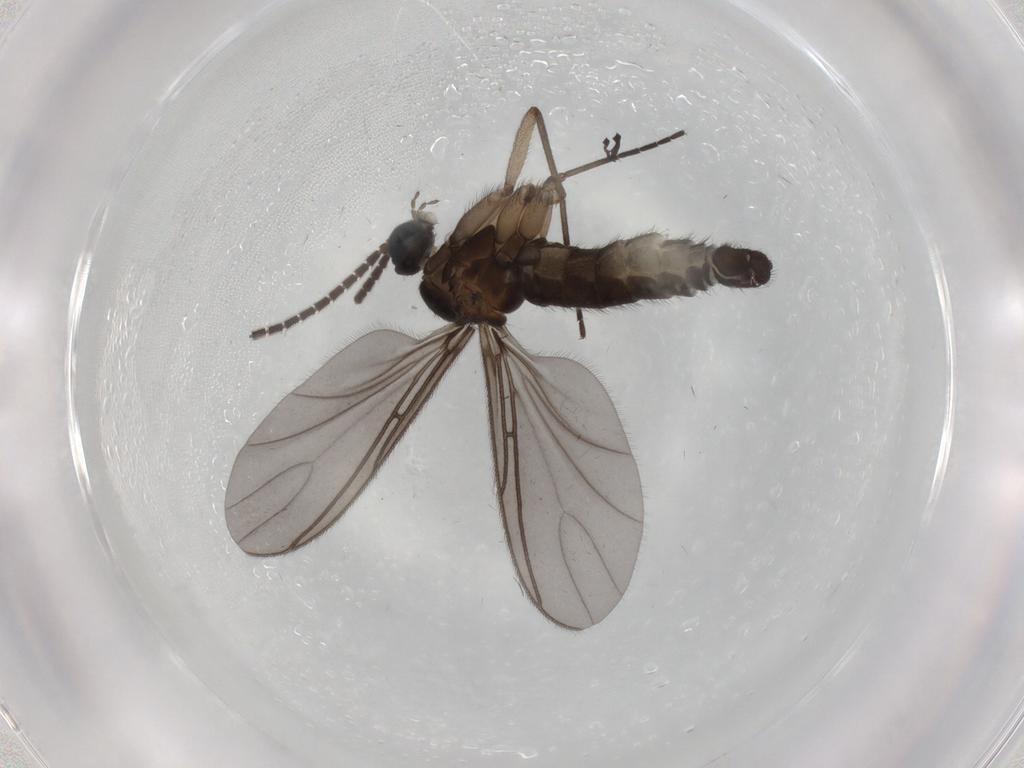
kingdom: Animalia
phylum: Arthropoda
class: Insecta
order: Diptera
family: Sciaridae
